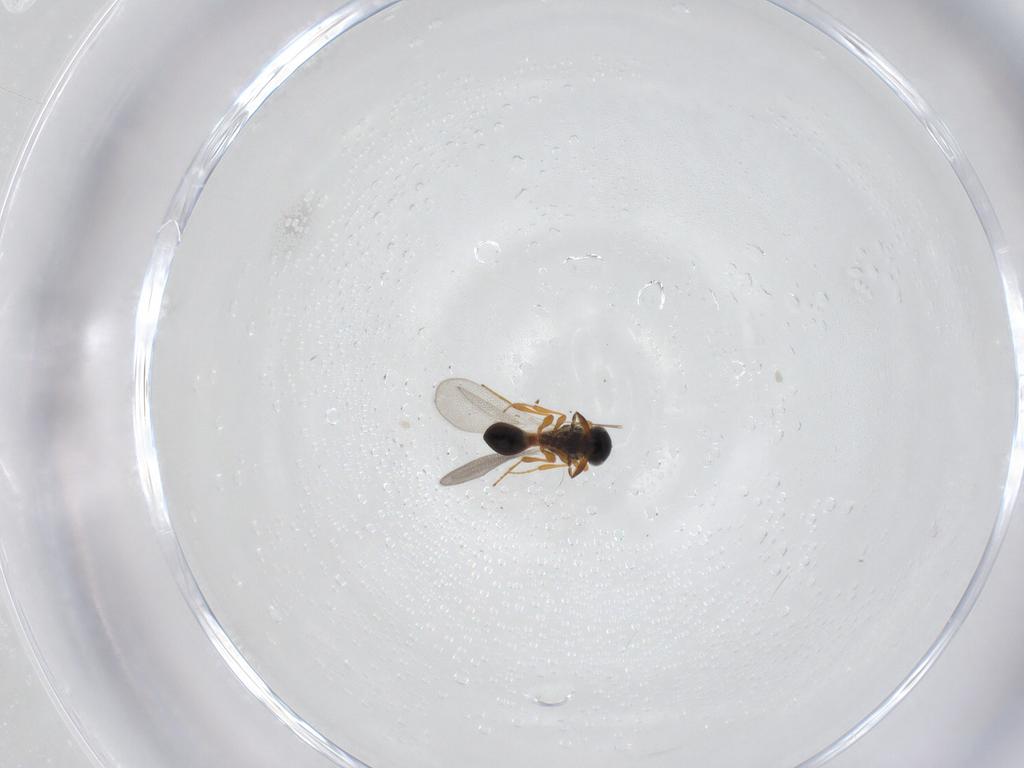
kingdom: Animalia
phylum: Arthropoda
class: Insecta
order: Hymenoptera
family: Platygastridae
